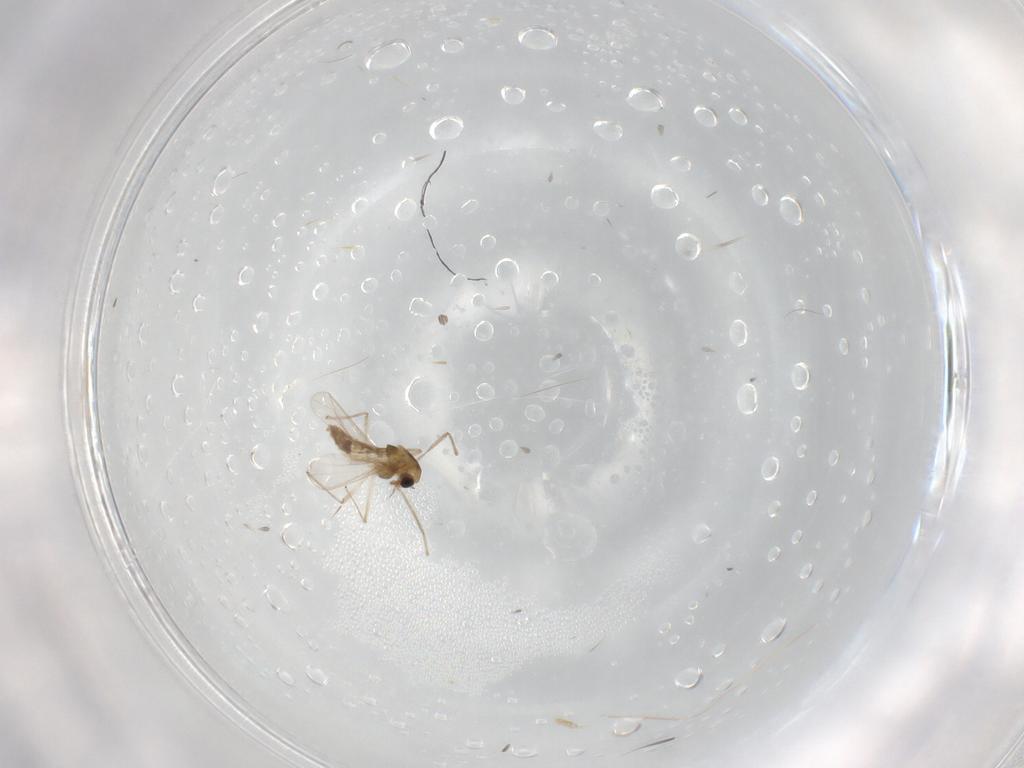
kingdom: Animalia
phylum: Arthropoda
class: Insecta
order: Diptera
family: Chironomidae
